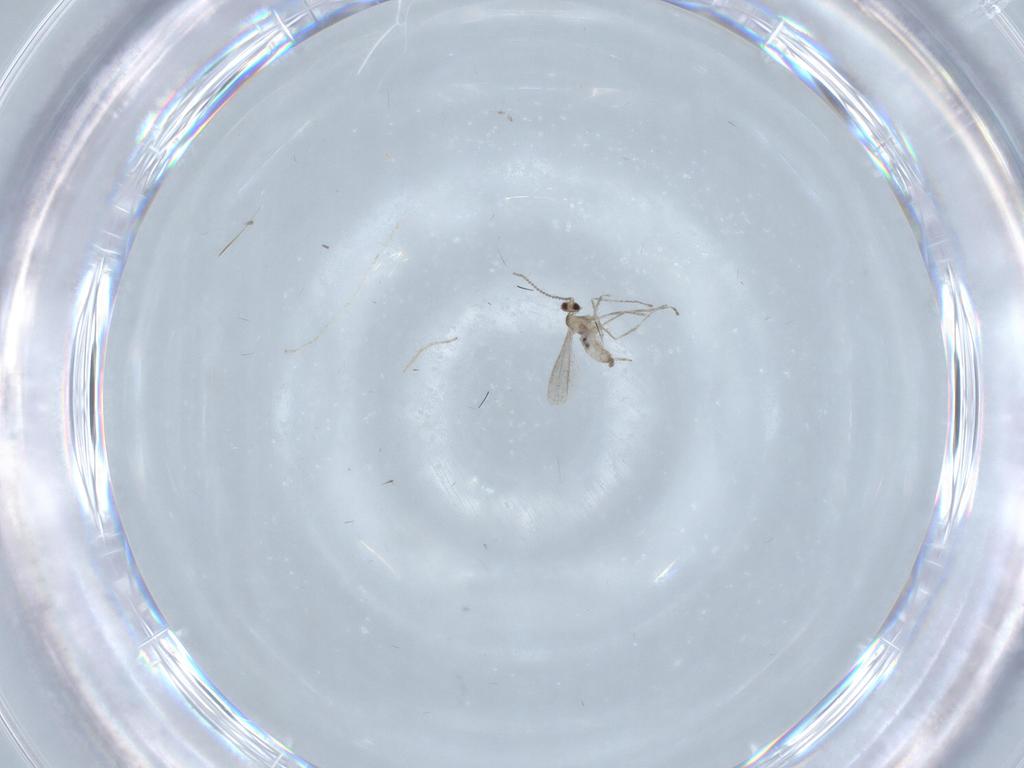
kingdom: Animalia
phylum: Arthropoda
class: Insecta
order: Diptera
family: Cecidomyiidae
